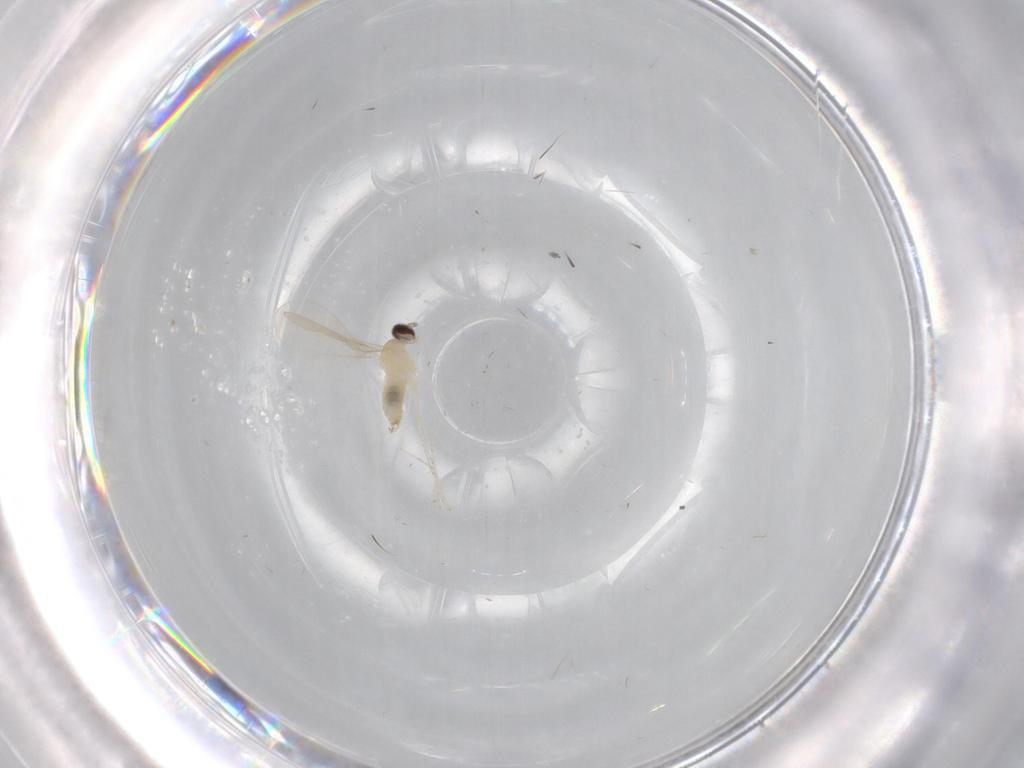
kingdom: Animalia
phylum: Arthropoda
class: Insecta
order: Diptera
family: Cecidomyiidae
